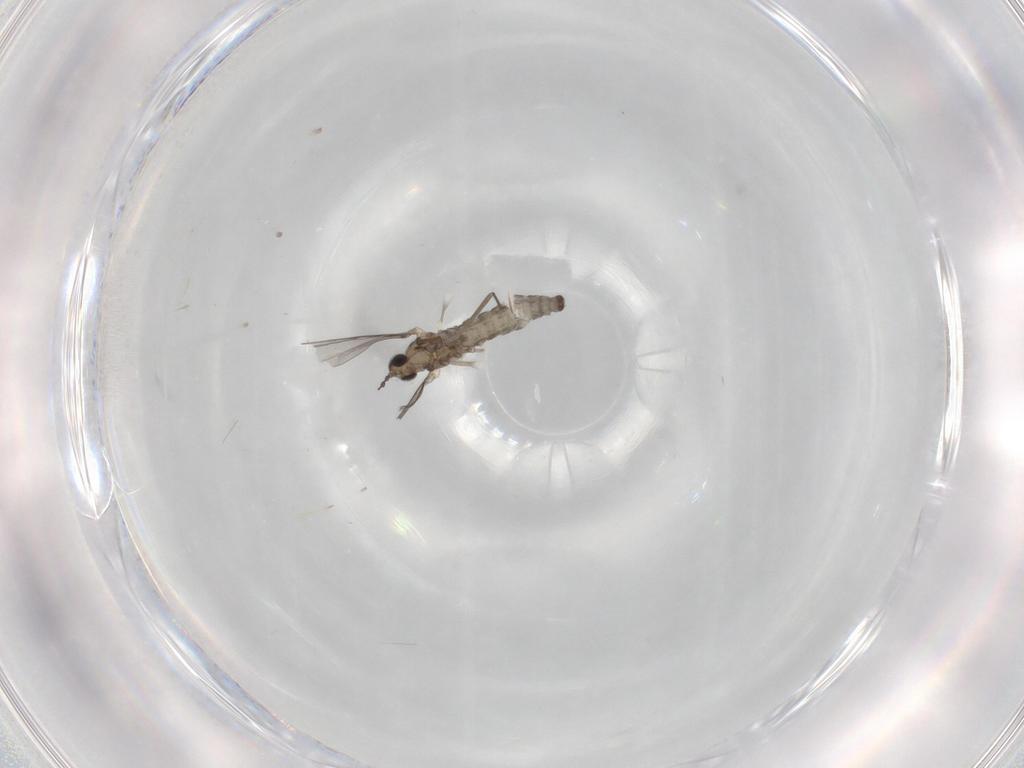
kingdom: Animalia
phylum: Arthropoda
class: Insecta
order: Diptera
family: Cecidomyiidae
